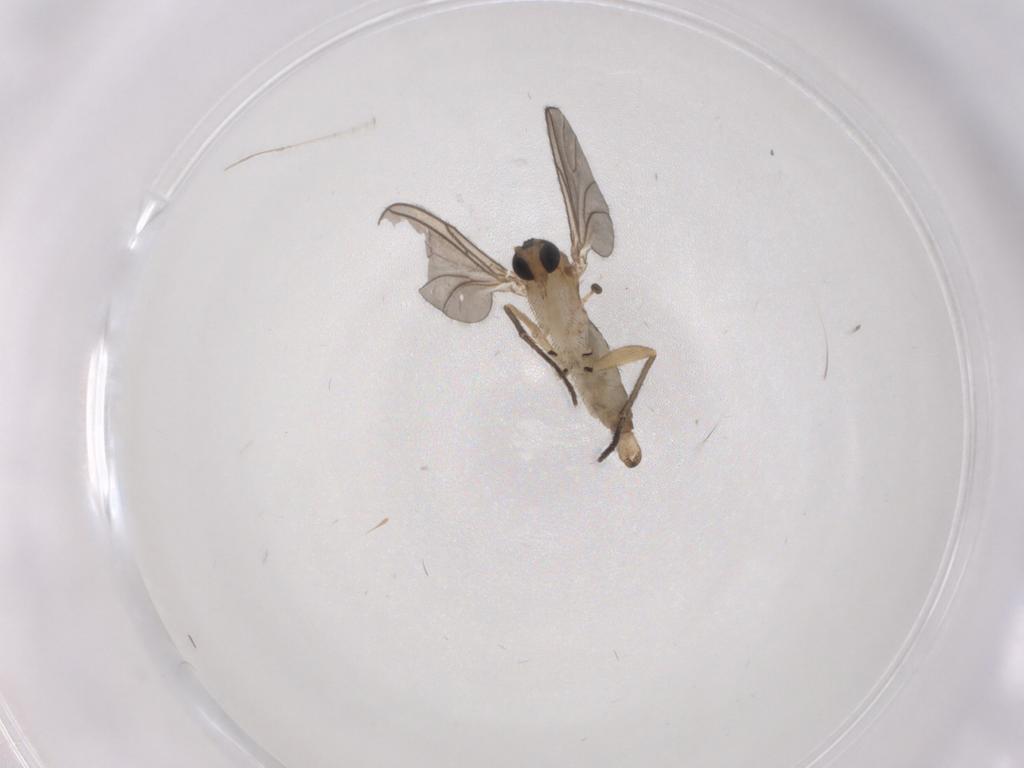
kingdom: Animalia
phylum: Arthropoda
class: Insecta
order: Diptera
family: Sciaridae
